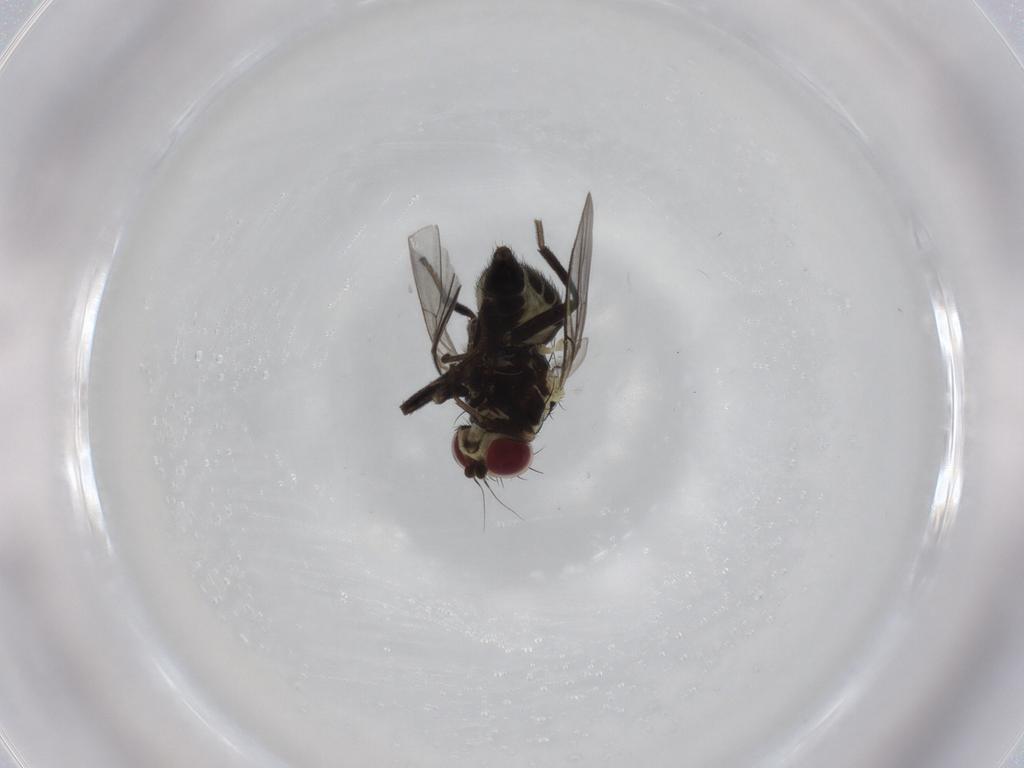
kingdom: Animalia
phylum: Arthropoda
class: Insecta
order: Diptera
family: Agromyzidae
